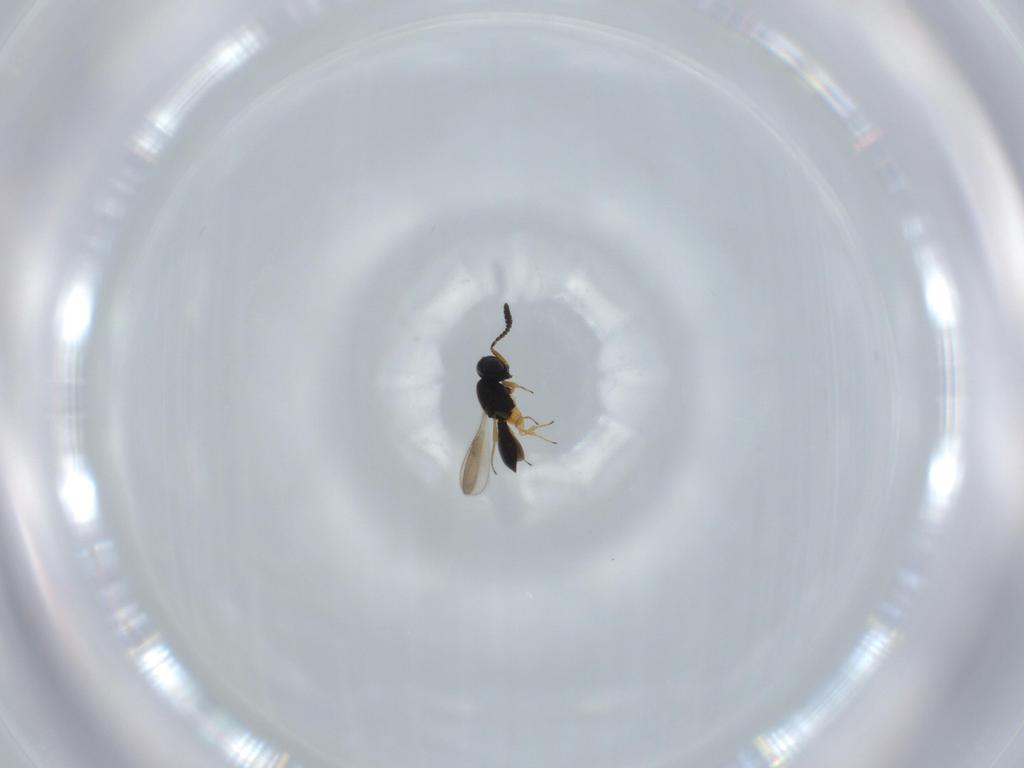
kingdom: Animalia
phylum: Arthropoda
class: Insecta
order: Hymenoptera
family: Scelionidae
